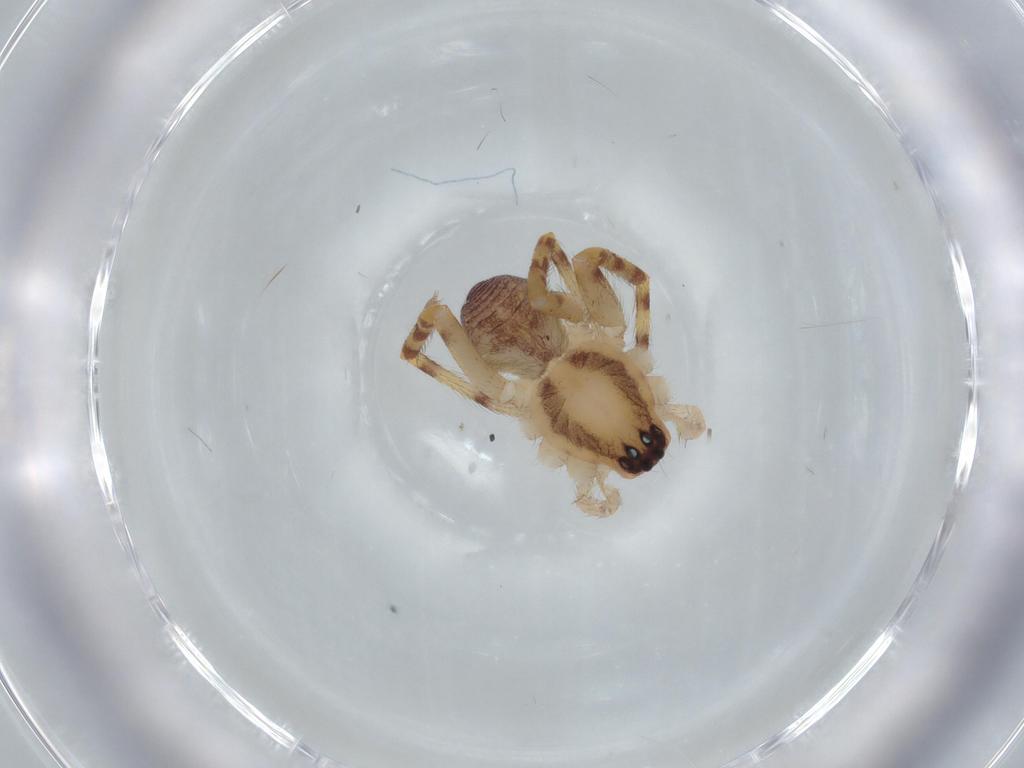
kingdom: Animalia
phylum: Arthropoda
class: Arachnida
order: Araneae
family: Corinnidae
